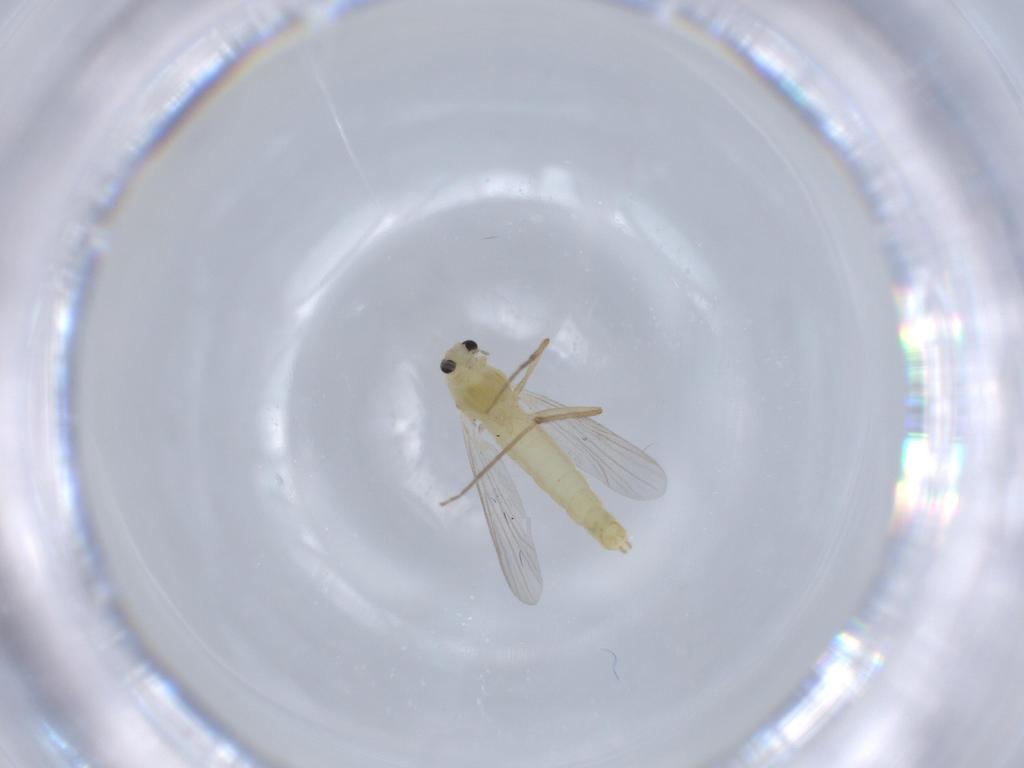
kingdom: Animalia
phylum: Arthropoda
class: Insecta
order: Diptera
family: Chironomidae
